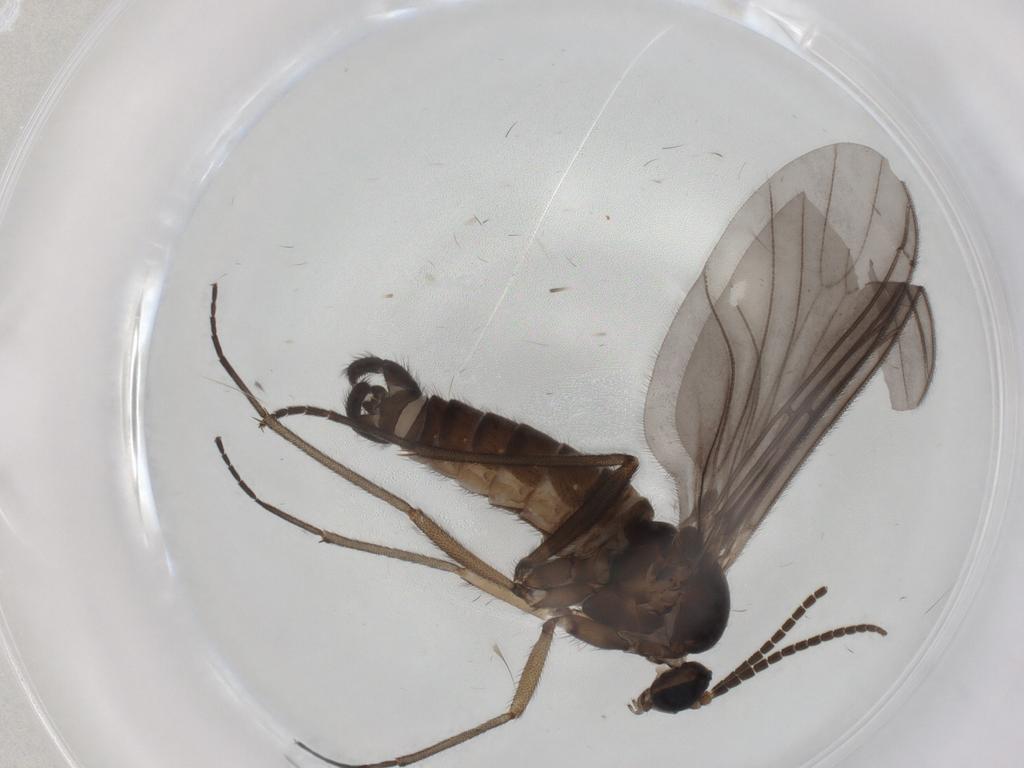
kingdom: Animalia
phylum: Arthropoda
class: Insecta
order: Diptera
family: Sciaridae
